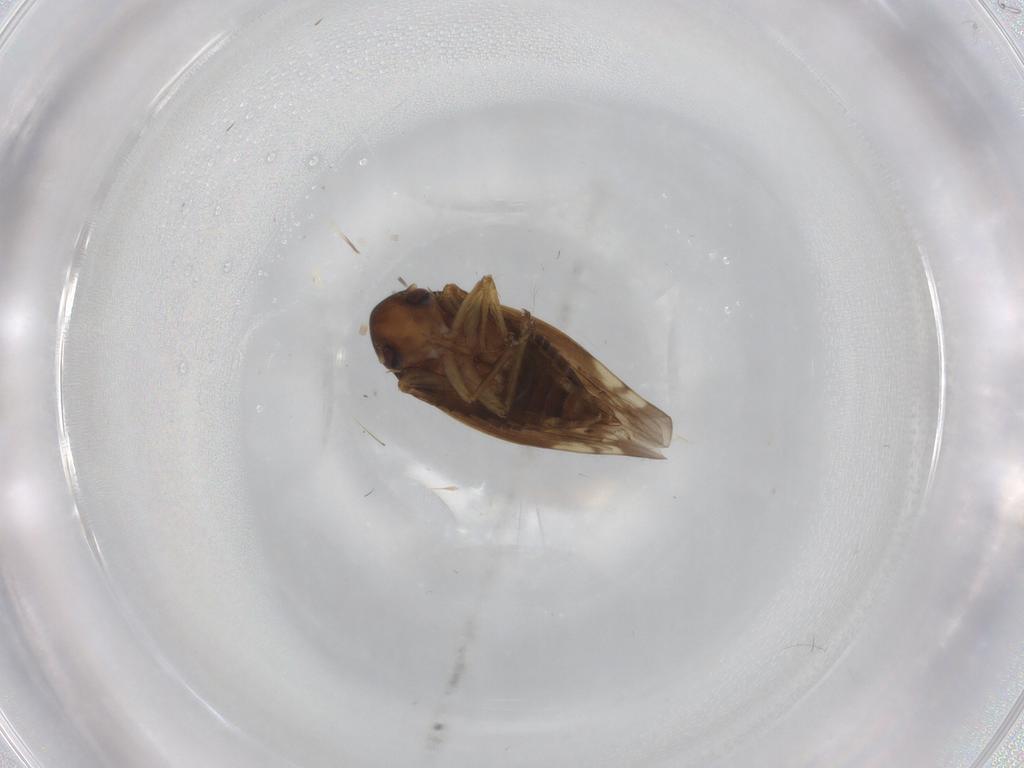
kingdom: Animalia
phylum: Arthropoda
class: Insecta
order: Hemiptera
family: Cicadellidae
